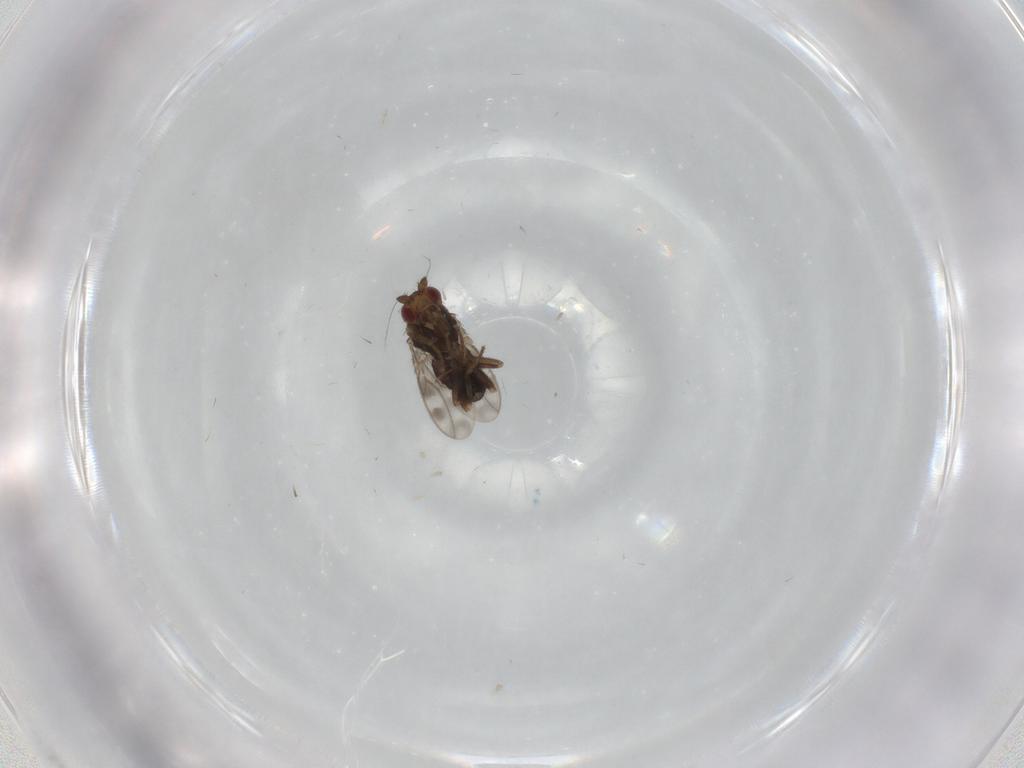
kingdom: Animalia
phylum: Arthropoda
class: Insecta
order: Diptera
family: Sphaeroceridae
